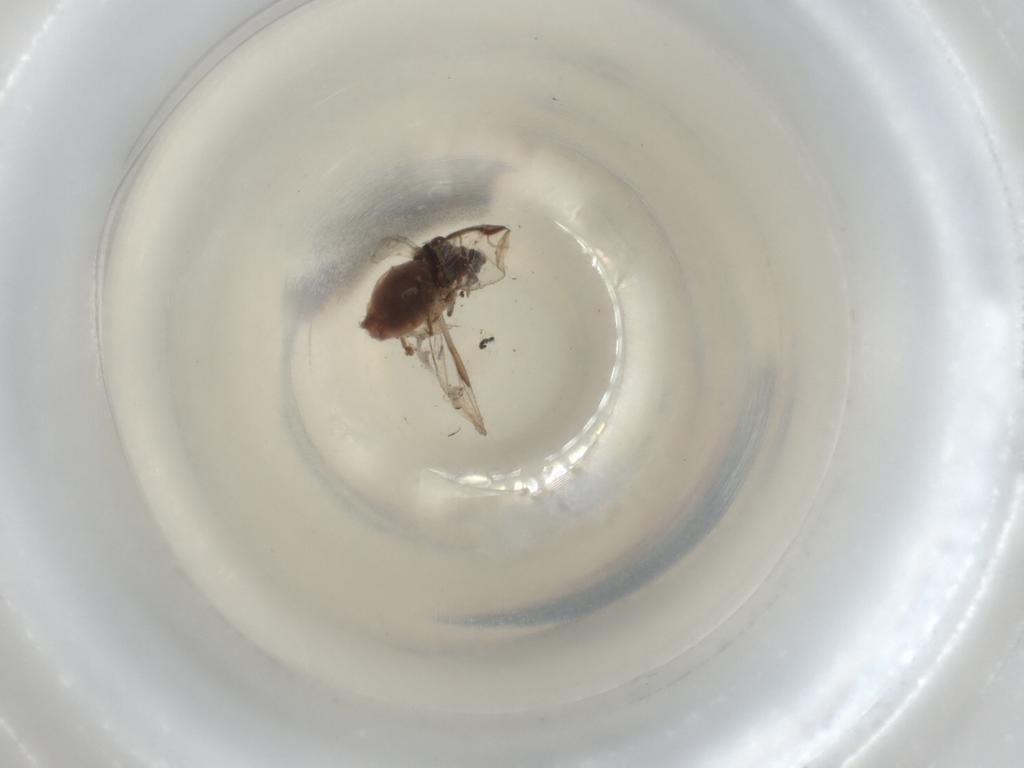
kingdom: Animalia
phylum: Arthropoda
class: Insecta
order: Hemiptera
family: Aphididae
